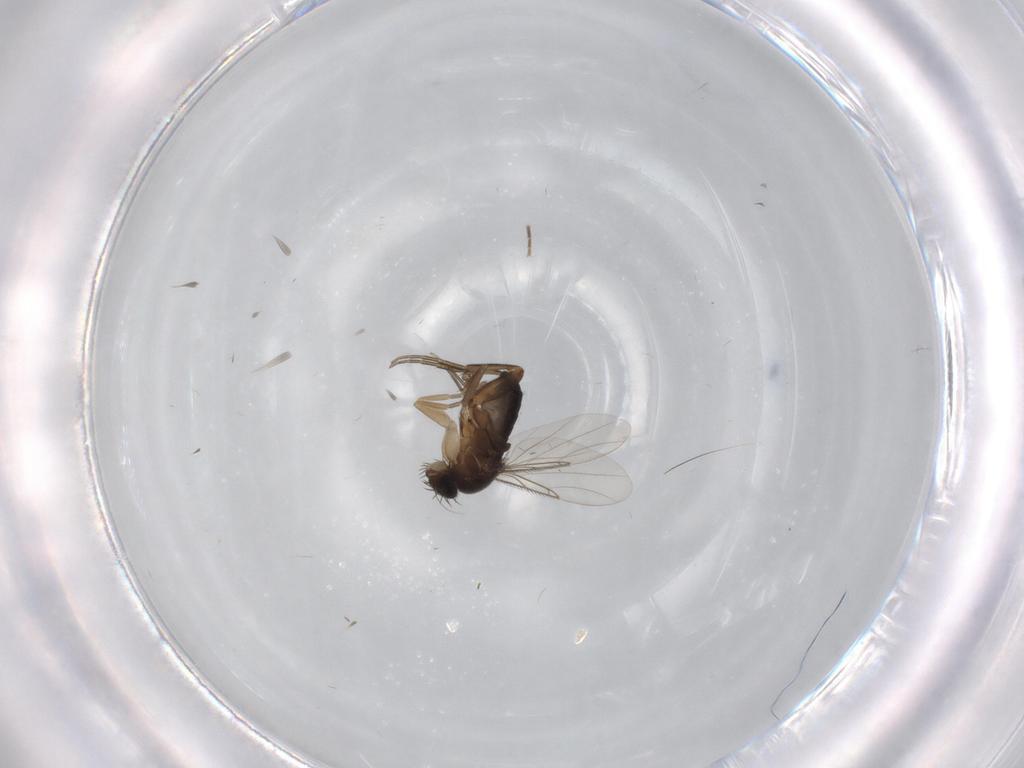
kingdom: Animalia
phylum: Arthropoda
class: Insecta
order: Diptera
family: Phoridae
